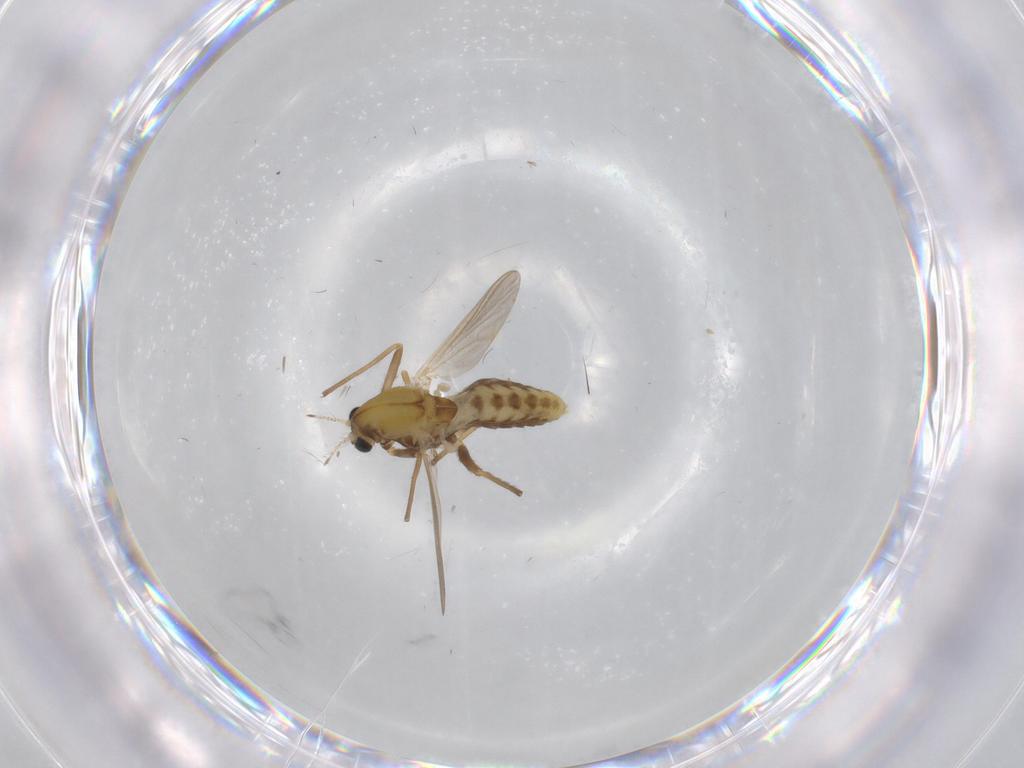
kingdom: Animalia
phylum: Arthropoda
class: Insecta
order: Diptera
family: Chironomidae
